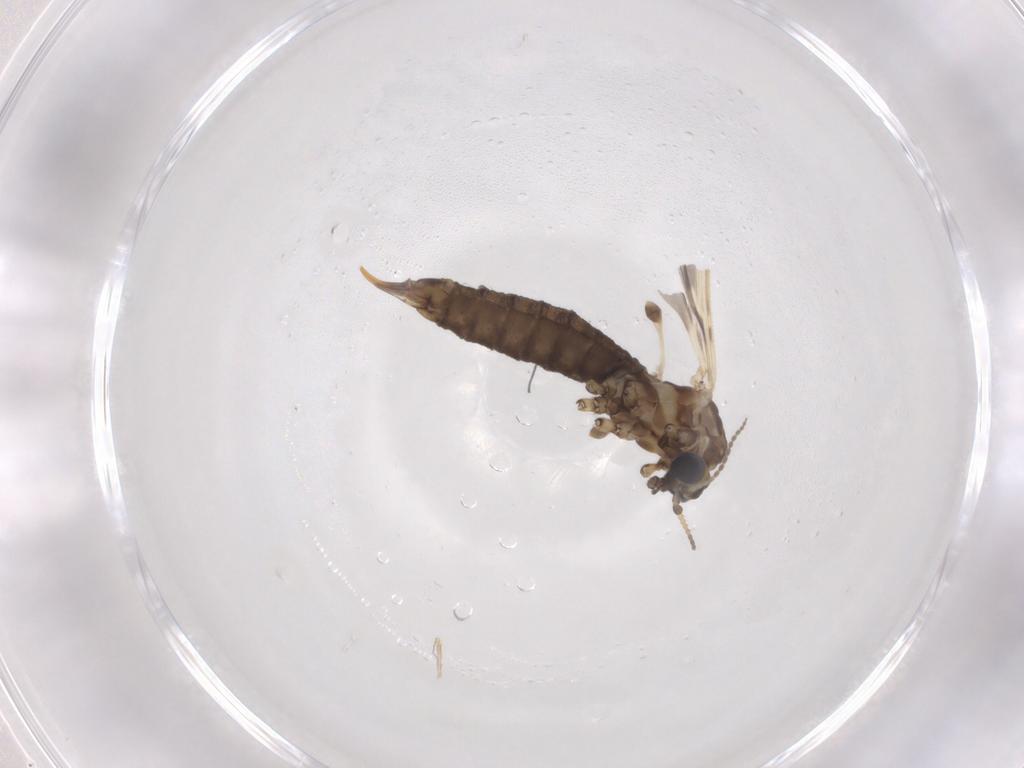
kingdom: Animalia
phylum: Arthropoda
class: Insecta
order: Diptera
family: Limoniidae
